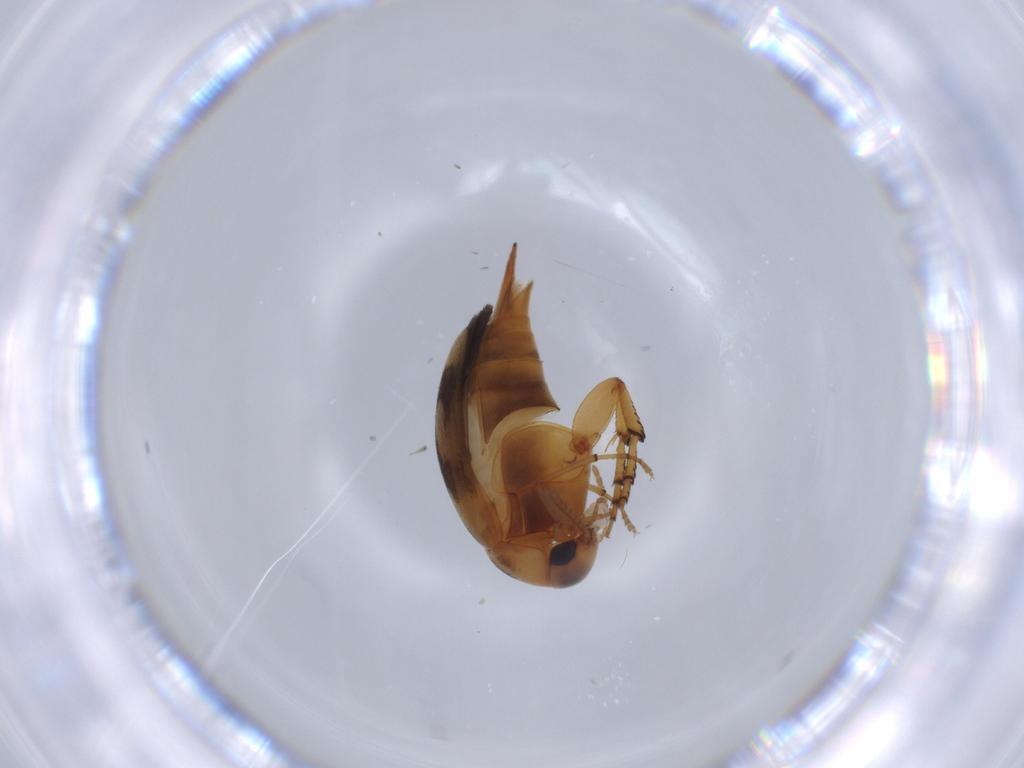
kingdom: Animalia
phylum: Arthropoda
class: Insecta
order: Coleoptera
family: Mordellidae
